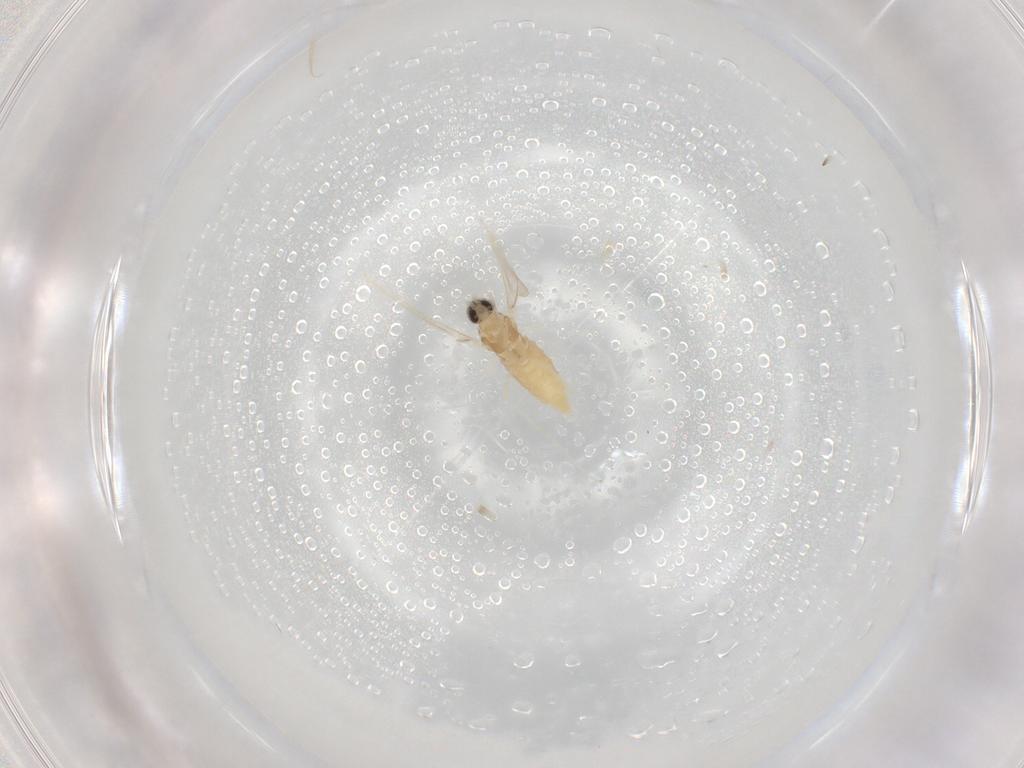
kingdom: Animalia
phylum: Arthropoda
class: Insecta
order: Diptera
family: Cecidomyiidae
